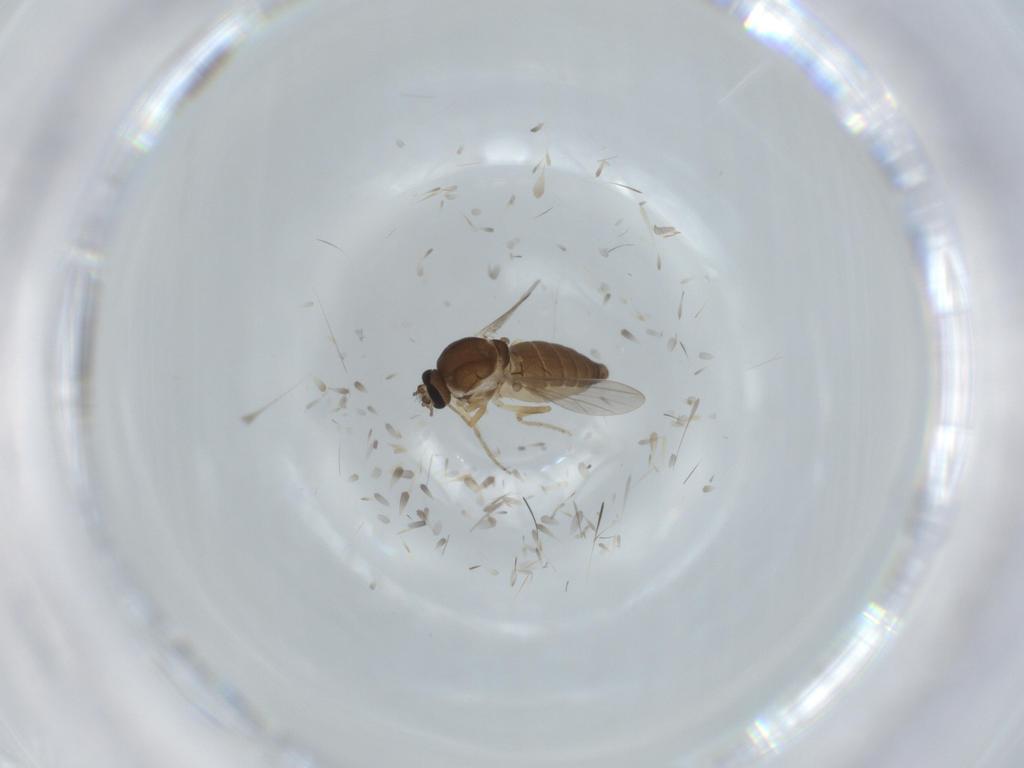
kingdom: Animalia
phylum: Arthropoda
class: Insecta
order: Diptera
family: Ceratopogonidae
